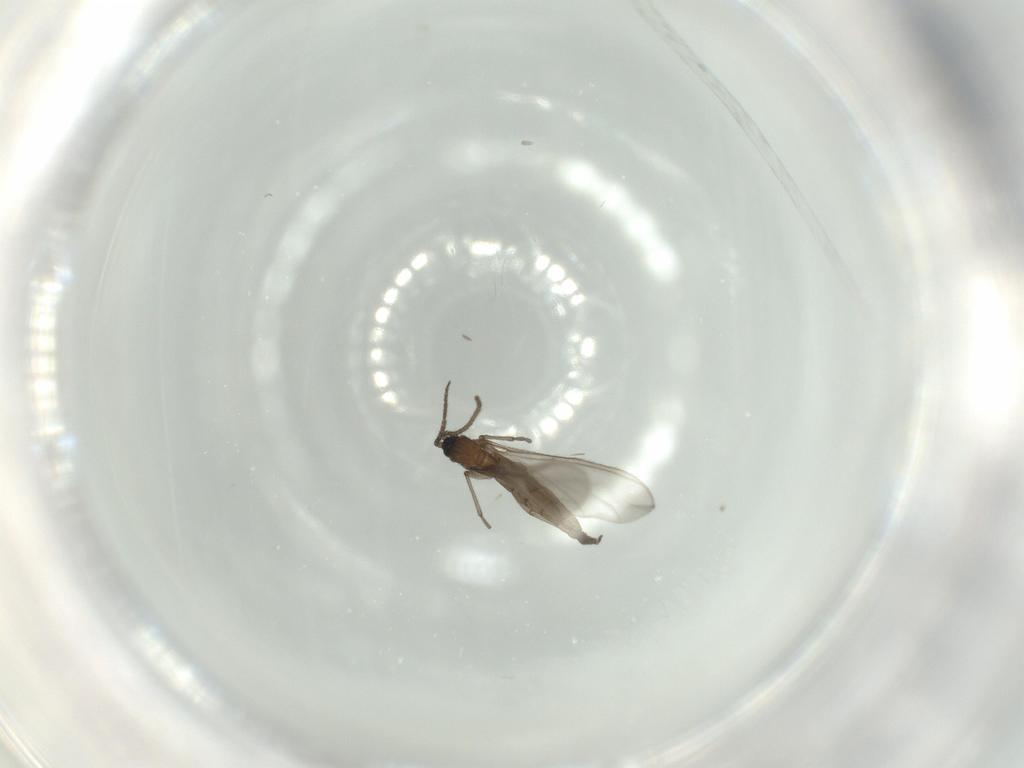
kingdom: Animalia
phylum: Arthropoda
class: Insecta
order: Diptera
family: Sciaridae
